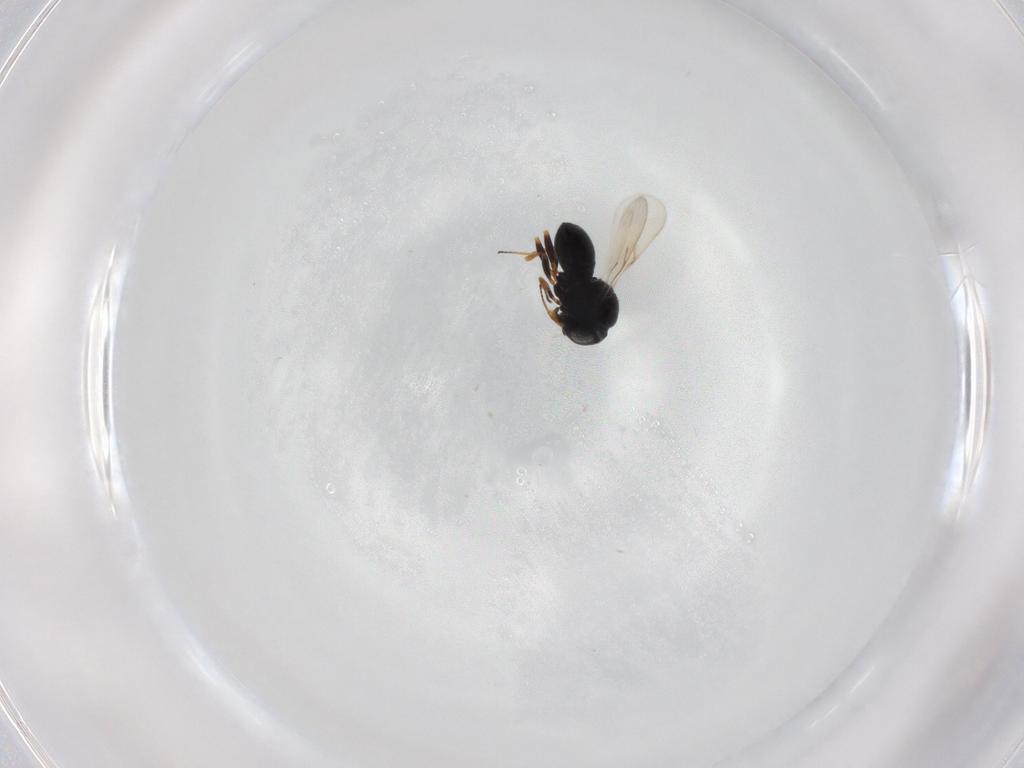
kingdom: Animalia
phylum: Arthropoda
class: Insecta
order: Hymenoptera
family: Scelionidae
